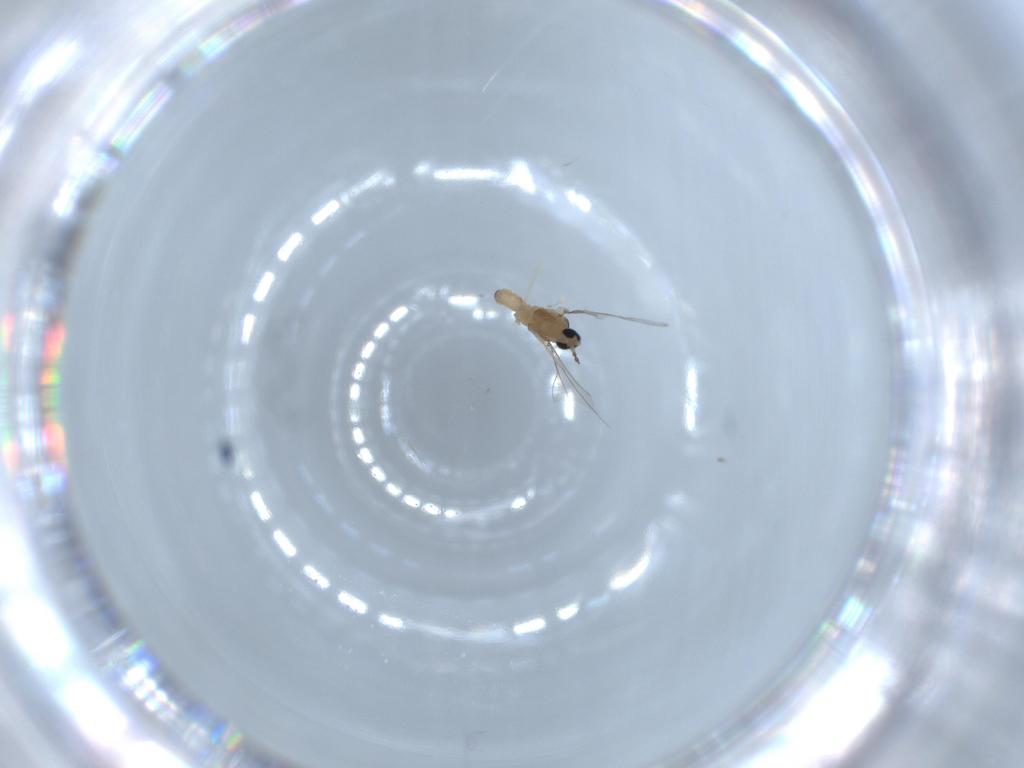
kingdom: Animalia
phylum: Arthropoda
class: Insecta
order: Diptera
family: Cecidomyiidae
